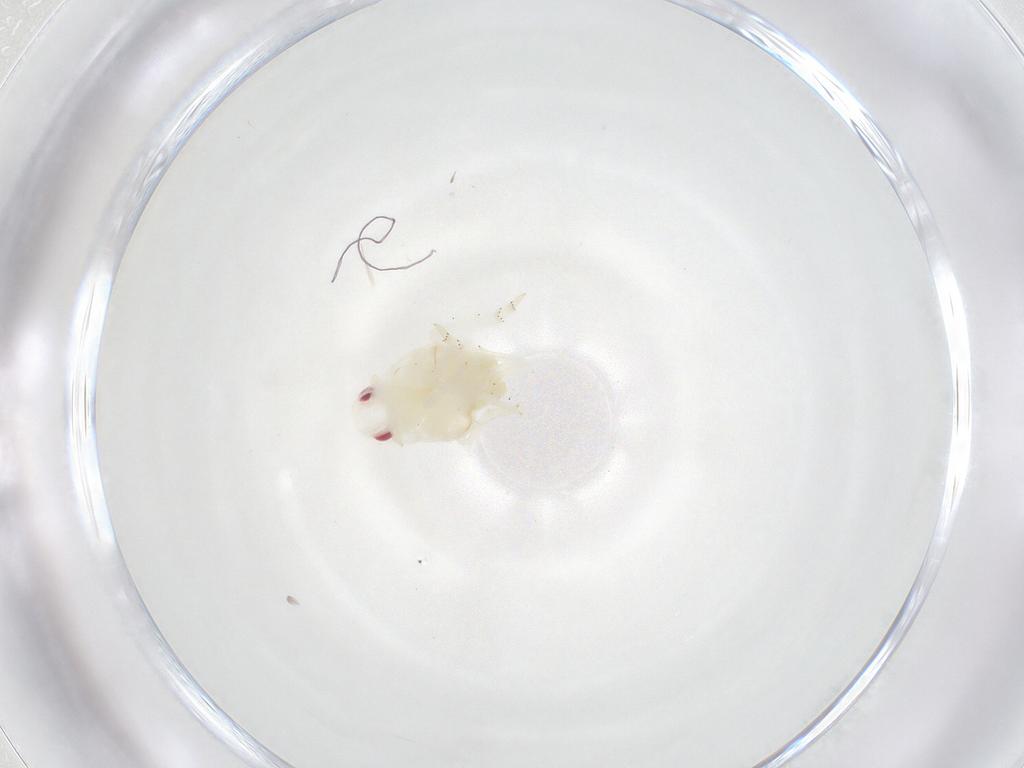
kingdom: Animalia
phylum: Arthropoda
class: Insecta
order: Hemiptera
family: Flatidae
